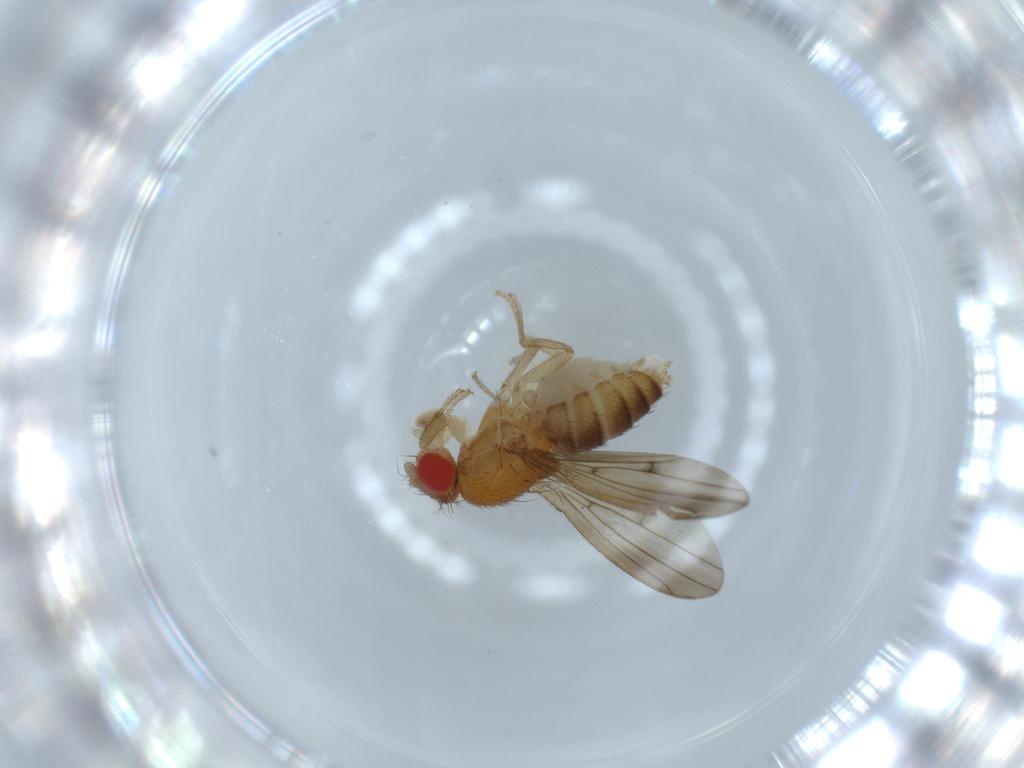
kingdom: Animalia
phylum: Arthropoda
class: Insecta
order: Diptera
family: Drosophilidae
